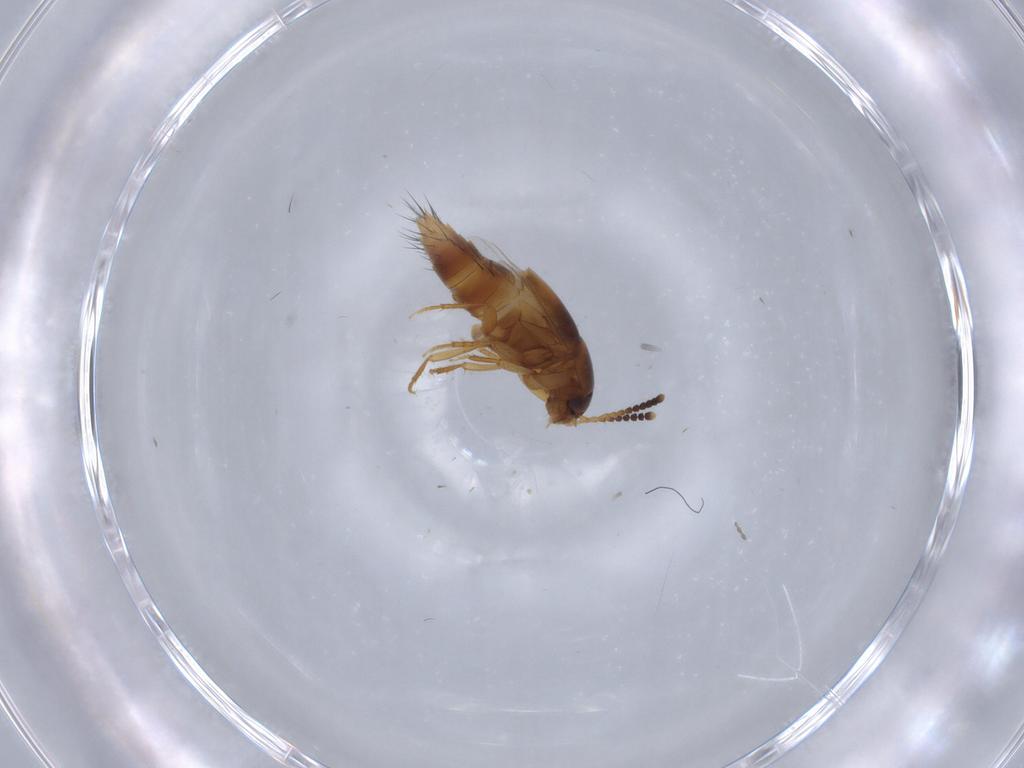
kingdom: Animalia
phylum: Arthropoda
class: Insecta
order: Coleoptera
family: Staphylinidae
